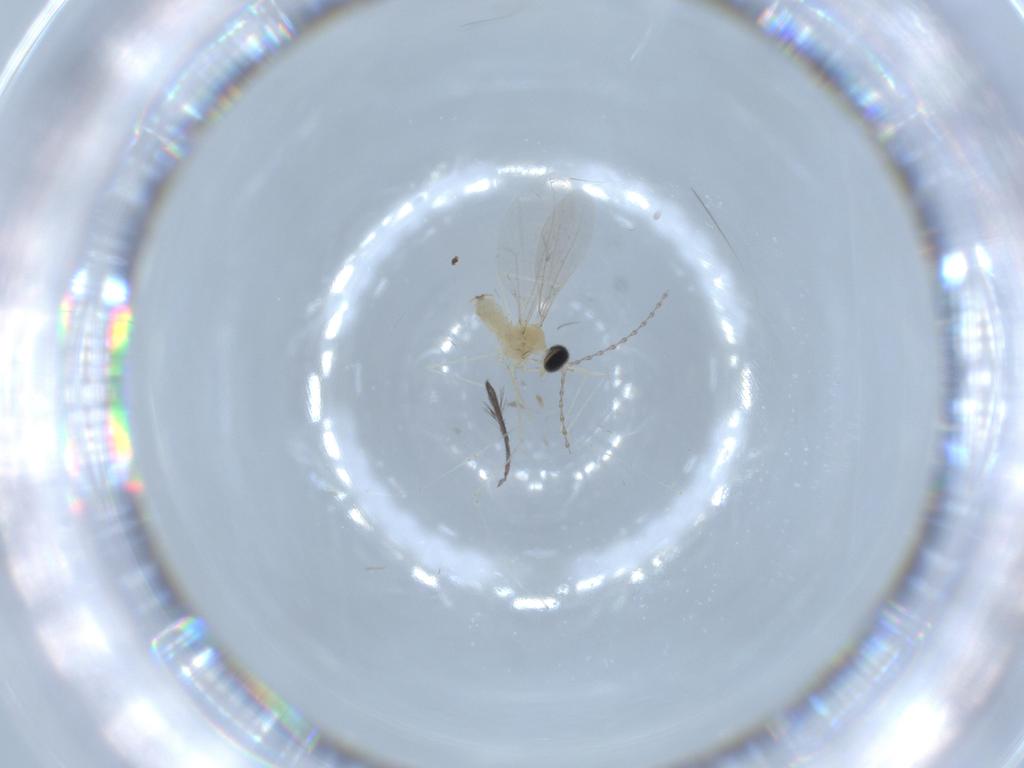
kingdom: Animalia
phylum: Arthropoda
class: Insecta
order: Diptera
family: Cecidomyiidae
